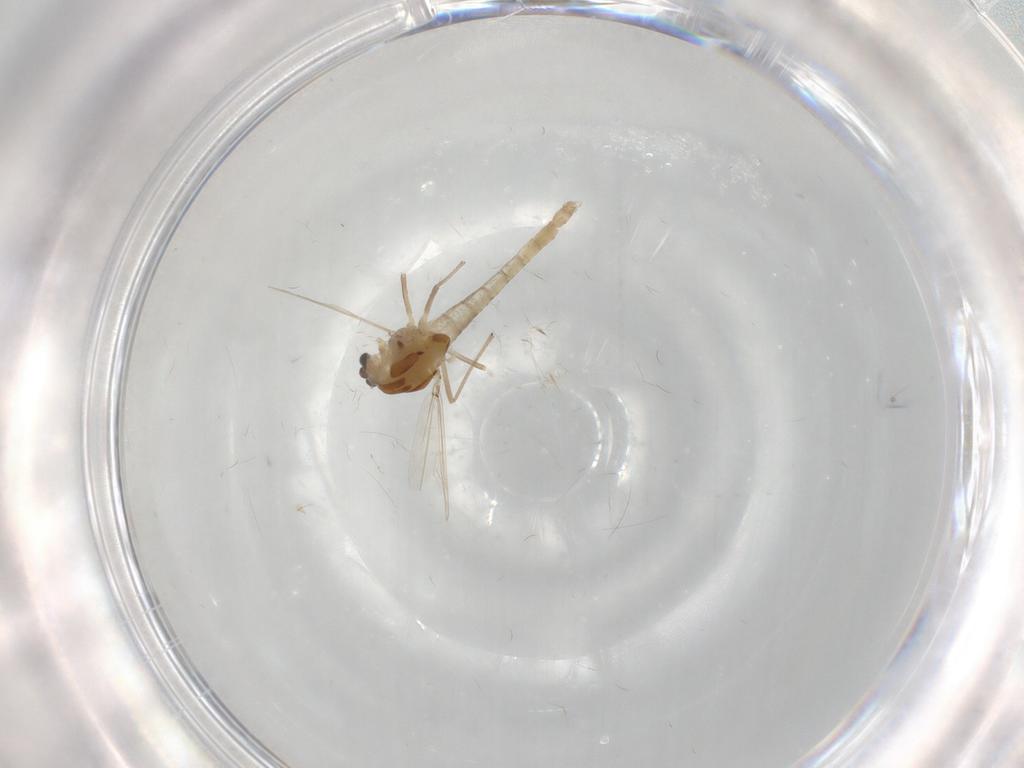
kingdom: Animalia
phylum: Arthropoda
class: Insecta
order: Diptera
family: Chironomidae
